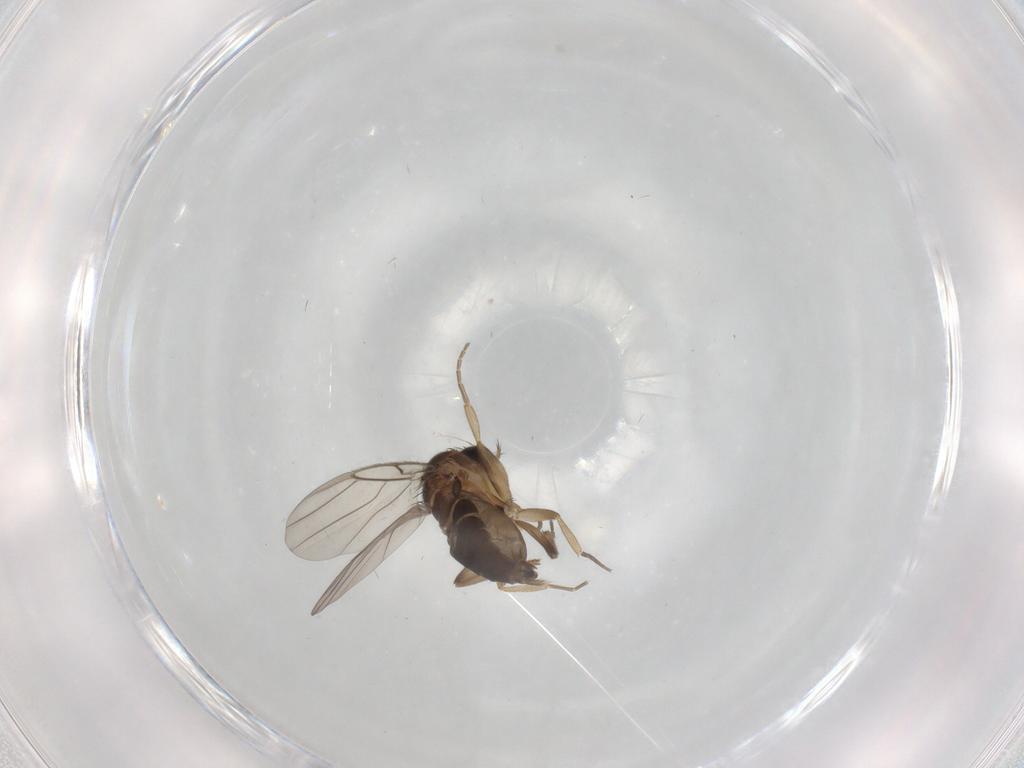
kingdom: Animalia
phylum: Arthropoda
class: Insecta
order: Diptera
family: Phoridae
